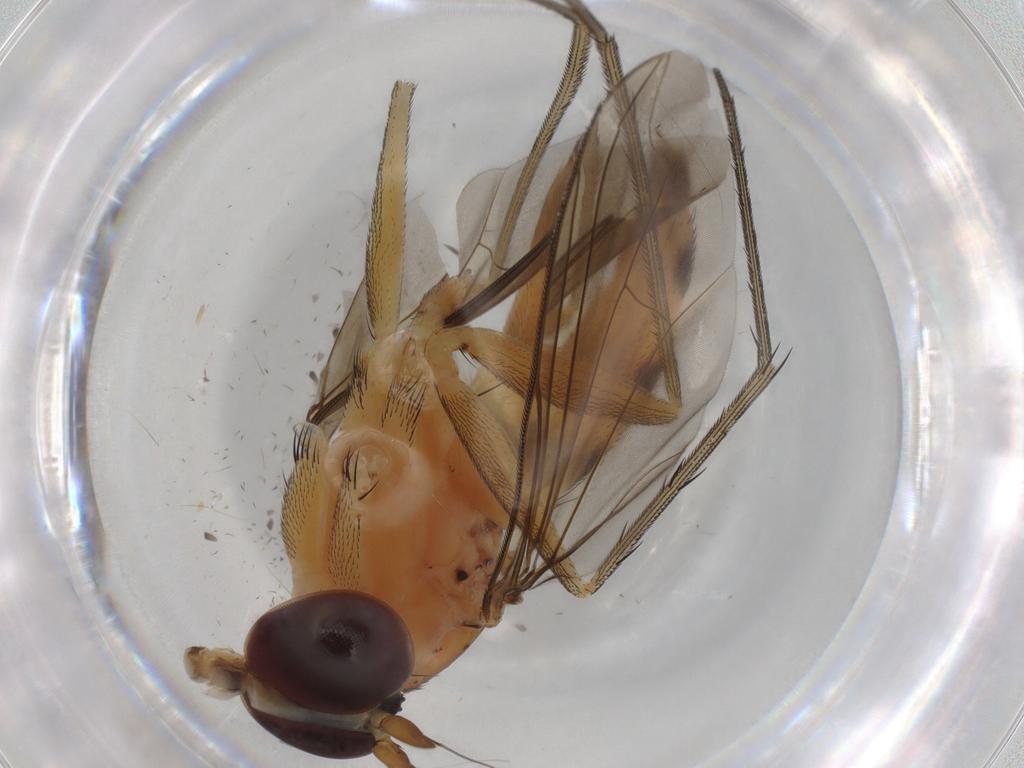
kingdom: Animalia
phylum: Arthropoda
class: Insecta
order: Diptera
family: Dolichopodidae
